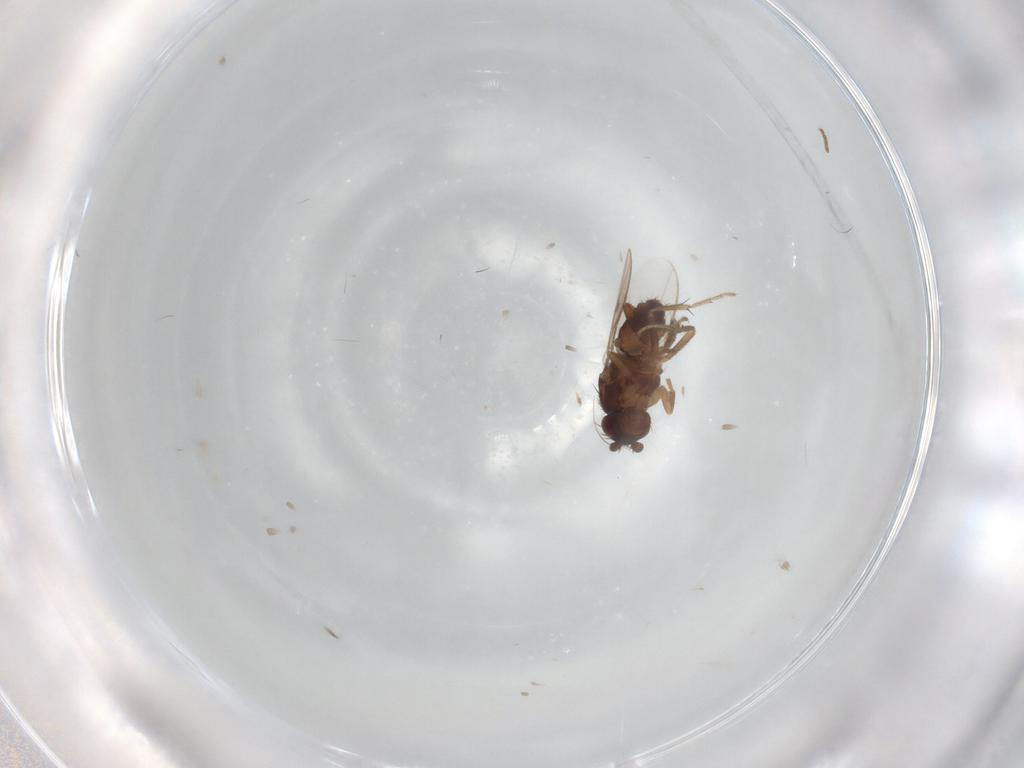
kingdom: Animalia
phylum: Arthropoda
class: Insecta
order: Diptera
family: Sphaeroceridae
